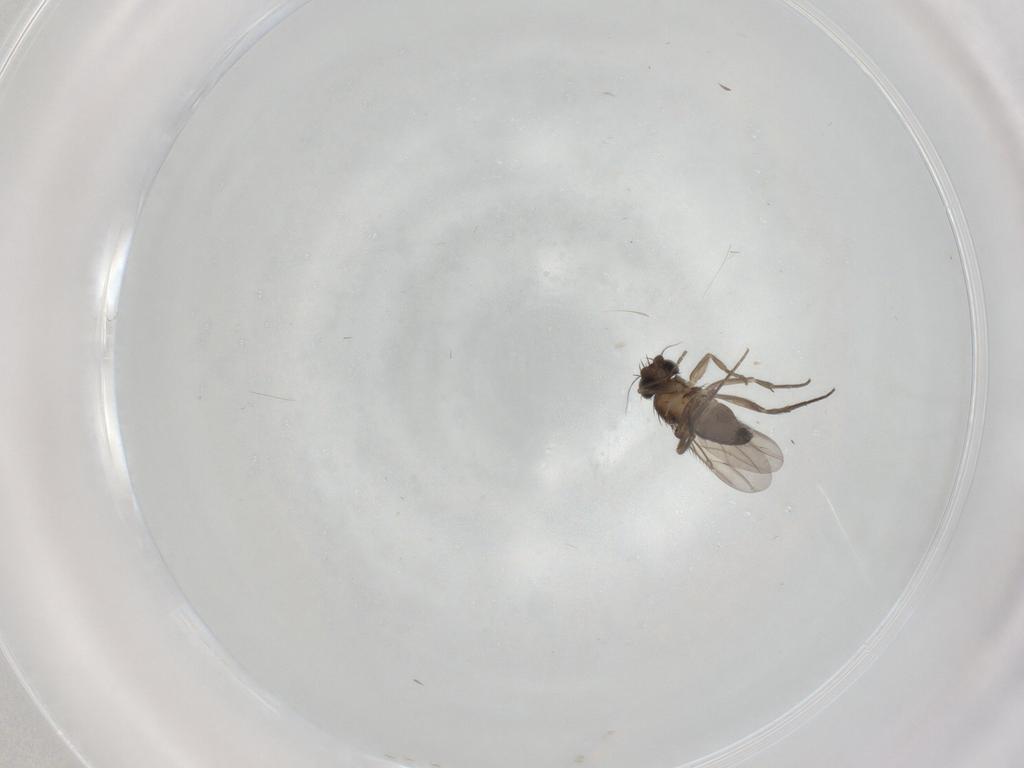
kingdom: Animalia
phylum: Arthropoda
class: Insecta
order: Diptera
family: Phoridae
